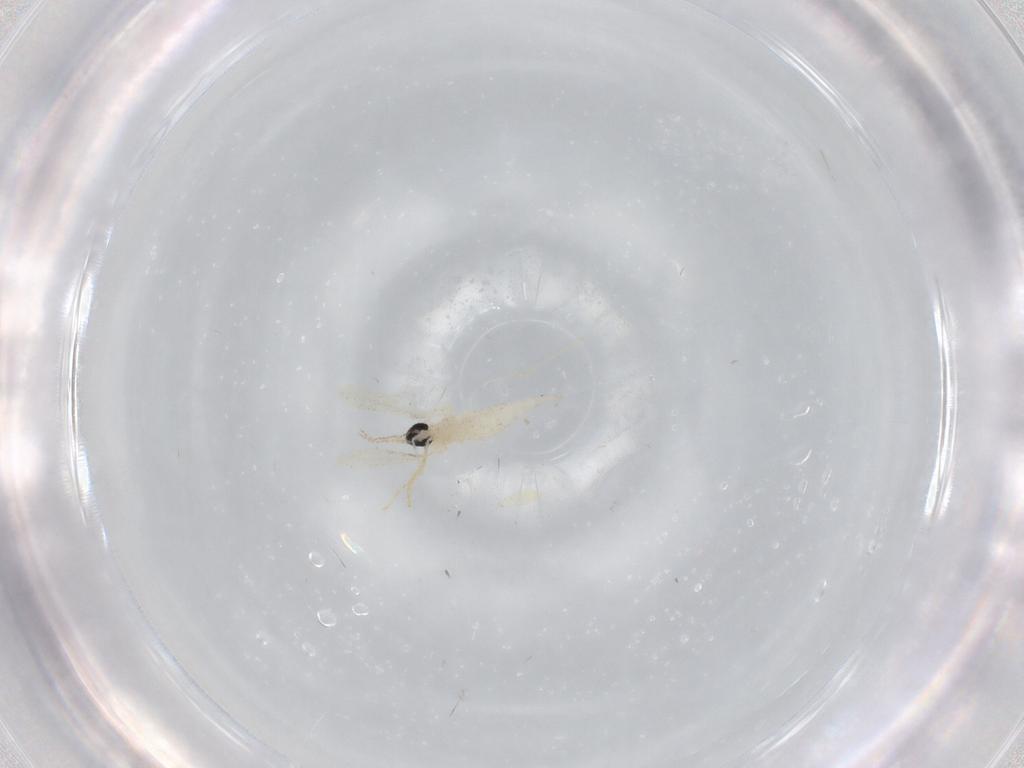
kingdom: Animalia
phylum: Arthropoda
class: Insecta
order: Diptera
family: Cecidomyiidae
